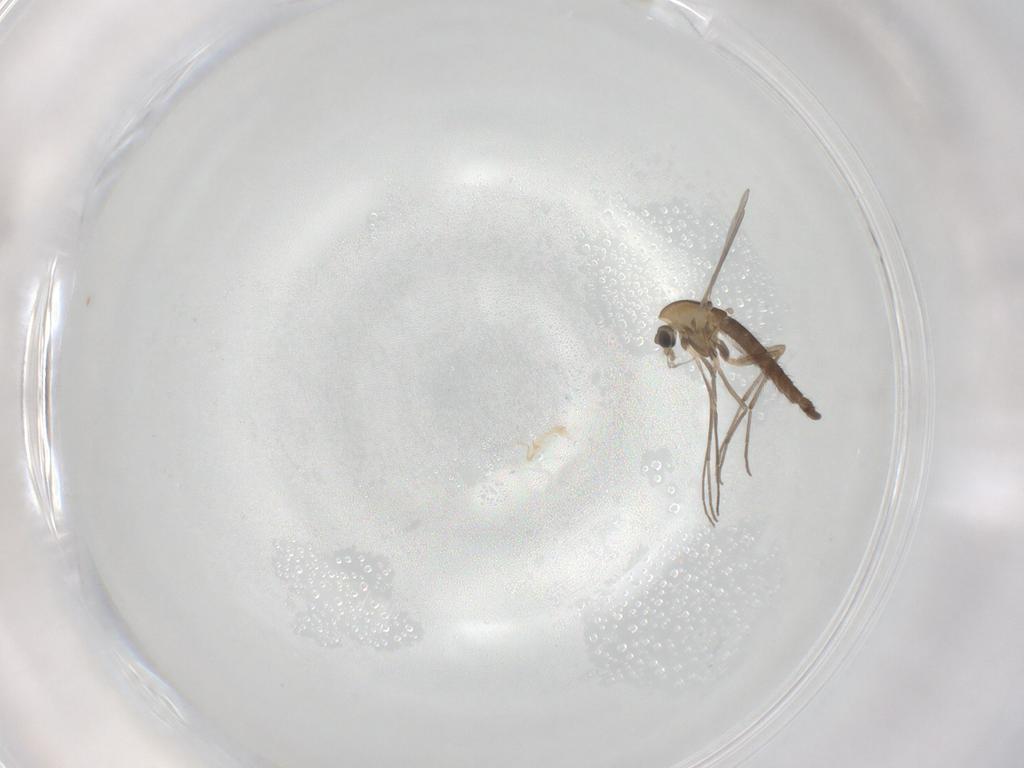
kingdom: Animalia
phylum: Arthropoda
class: Insecta
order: Diptera
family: Chironomidae
